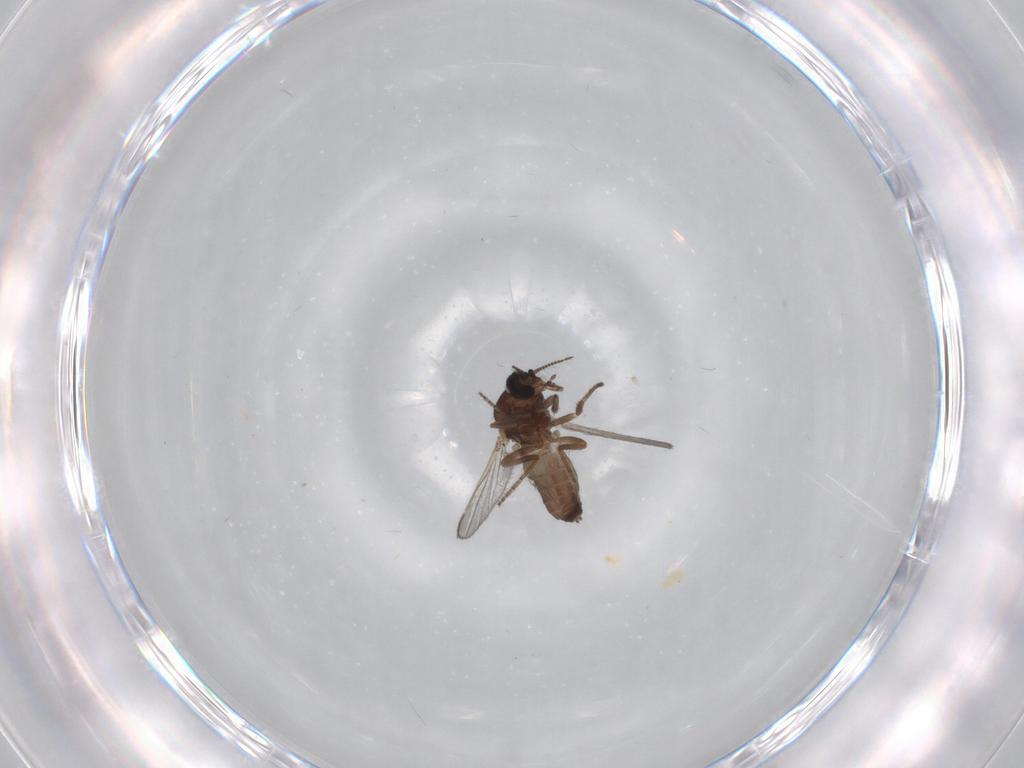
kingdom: Animalia
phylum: Arthropoda
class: Insecta
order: Diptera
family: Ceratopogonidae
